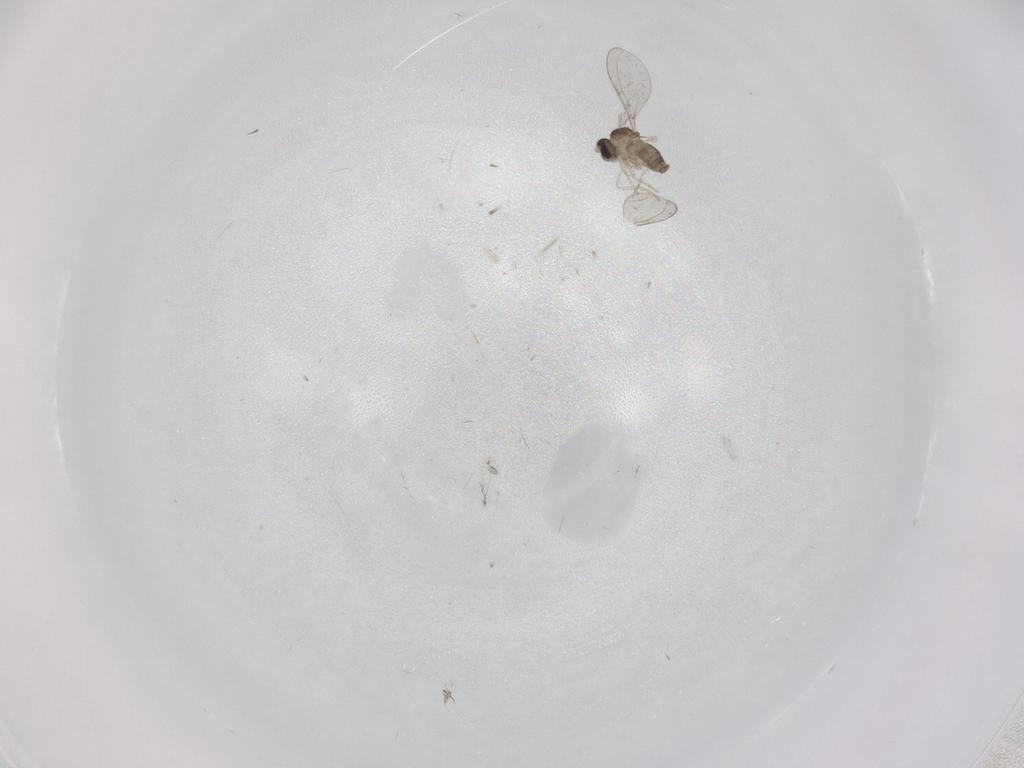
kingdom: Animalia
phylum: Arthropoda
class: Insecta
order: Diptera
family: Cecidomyiidae
